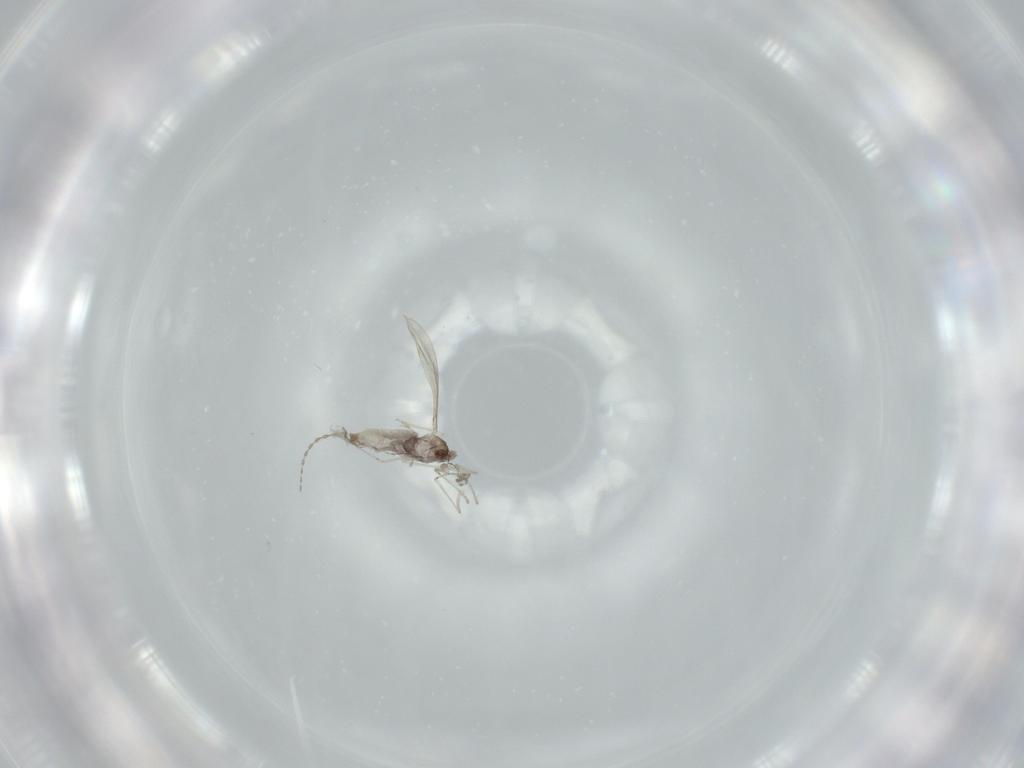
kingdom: Animalia
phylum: Arthropoda
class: Insecta
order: Diptera
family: Cecidomyiidae
